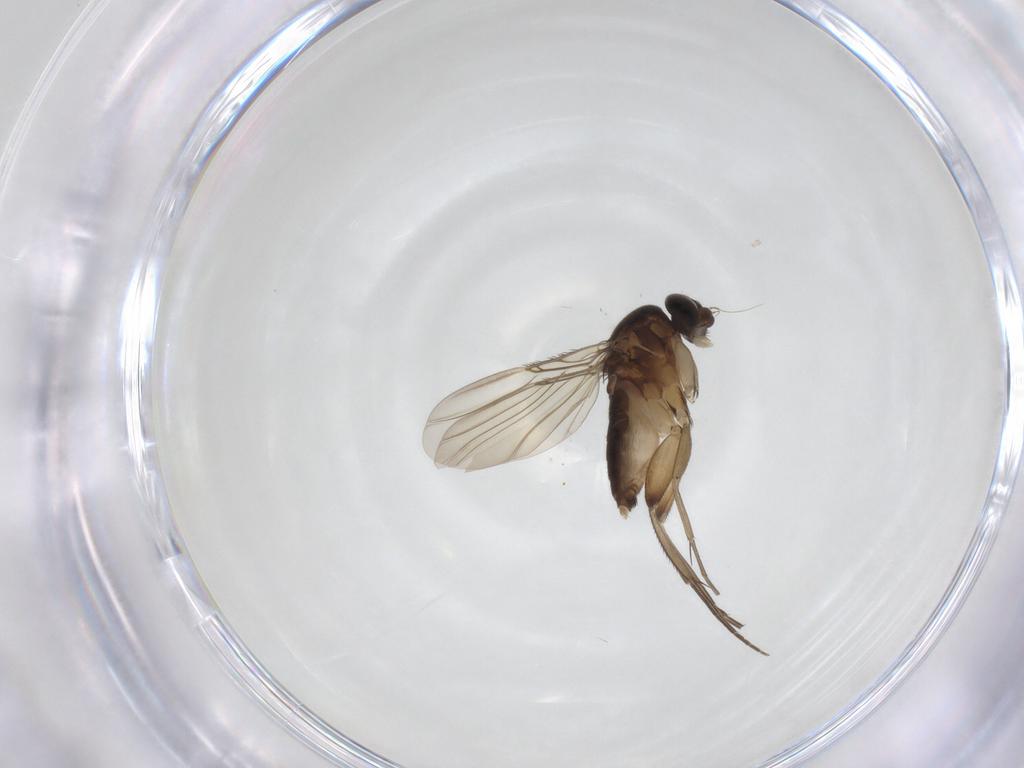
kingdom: Animalia
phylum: Arthropoda
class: Insecta
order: Diptera
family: Phoridae
